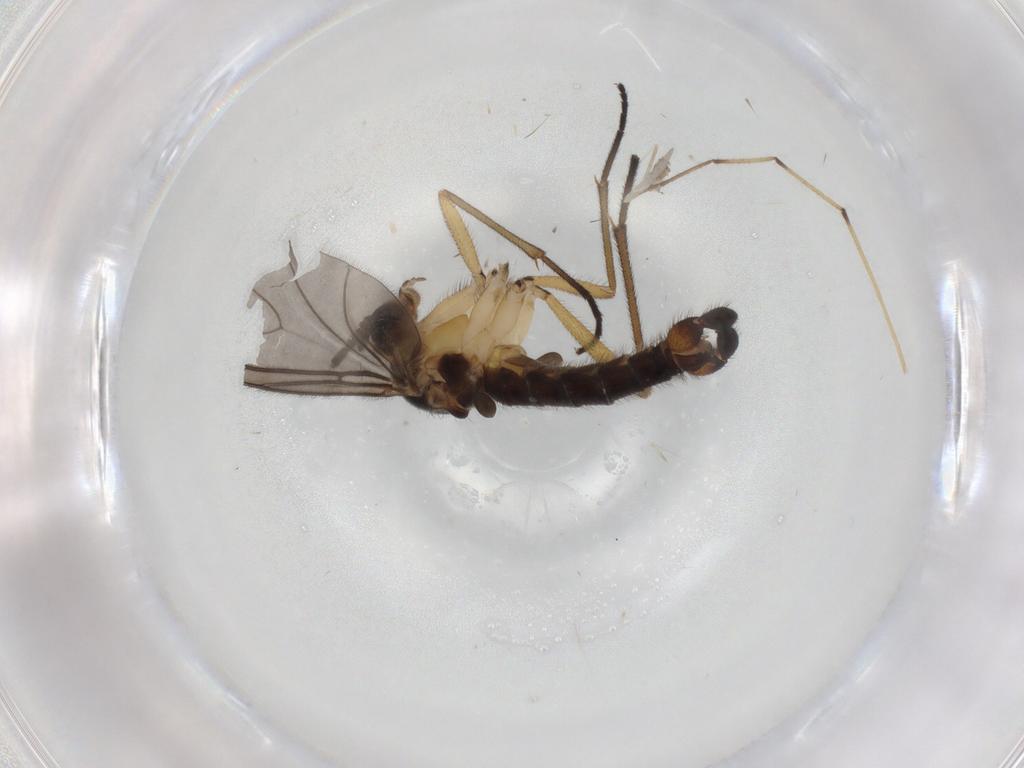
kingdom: Animalia
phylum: Arthropoda
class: Insecta
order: Diptera
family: Sciaridae
